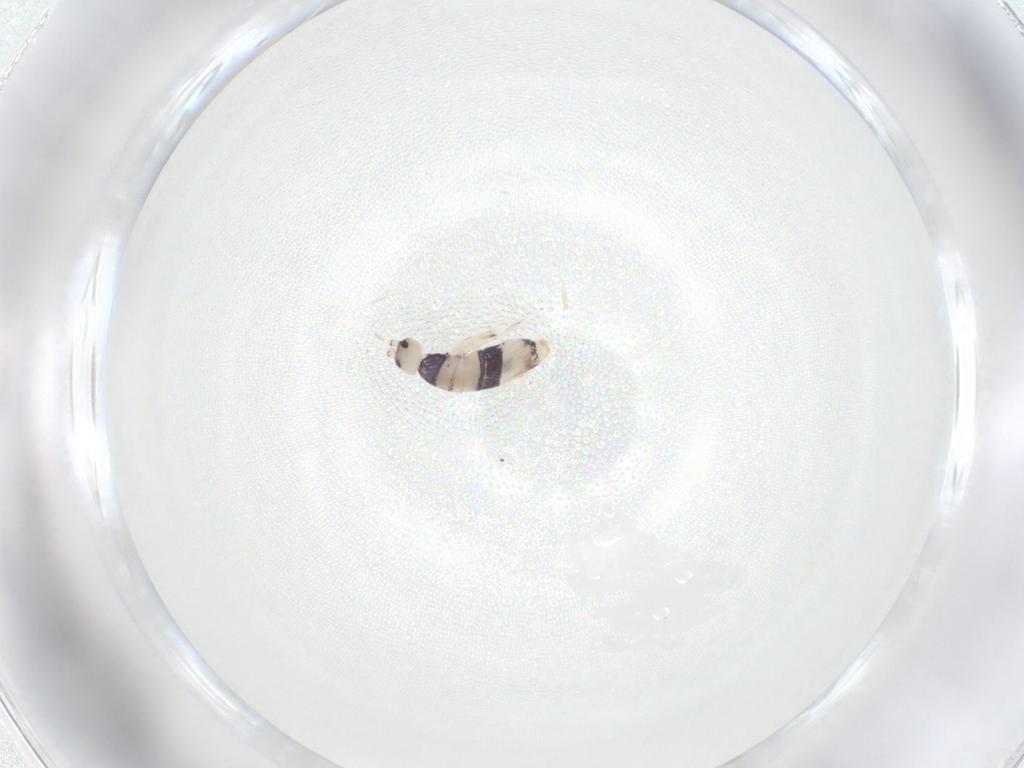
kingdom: Animalia
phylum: Arthropoda
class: Collembola
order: Entomobryomorpha
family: Entomobryidae
